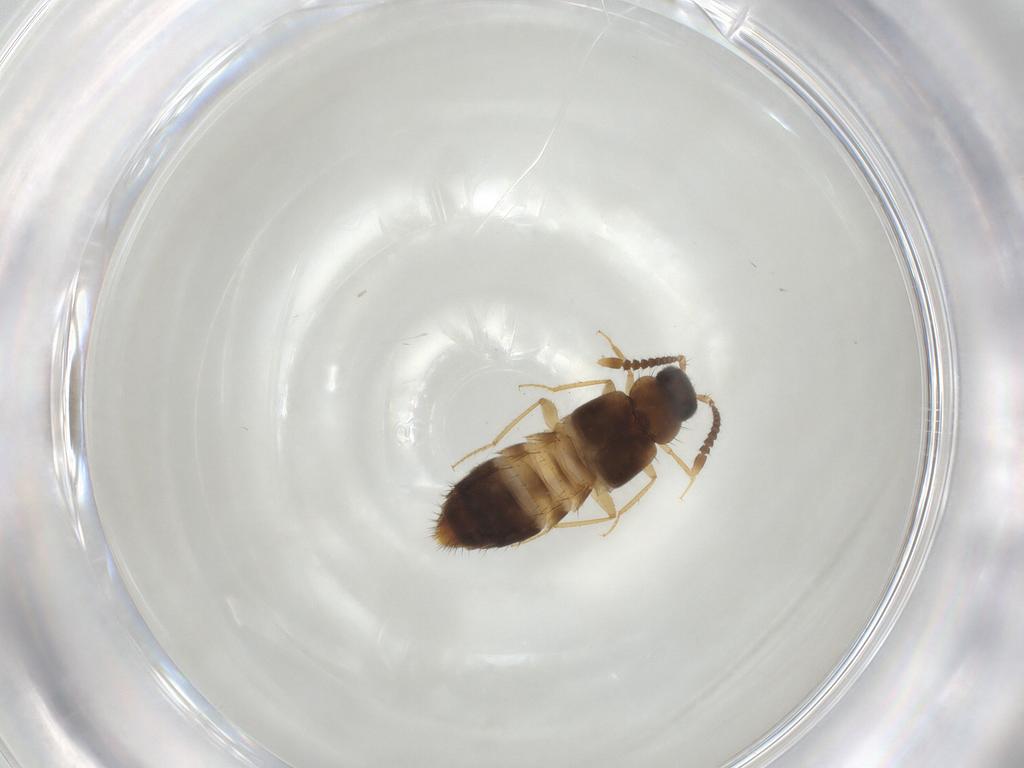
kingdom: Animalia
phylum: Arthropoda
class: Insecta
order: Coleoptera
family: Staphylinidae
